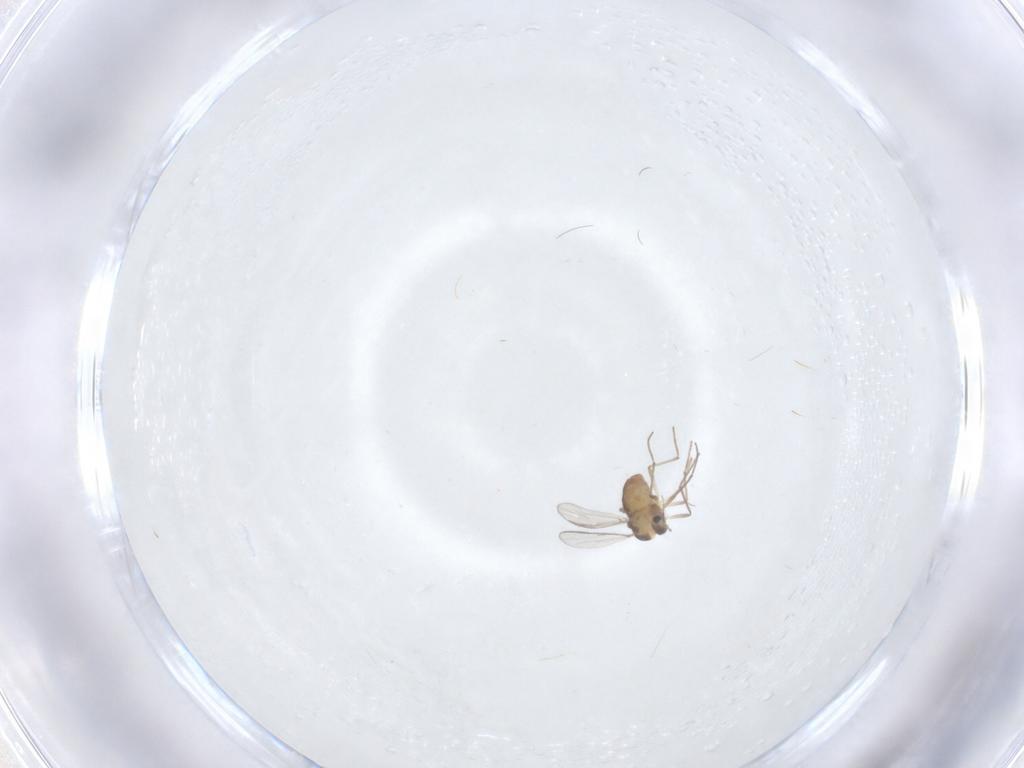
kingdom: Animalia
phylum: Arthropoda
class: Insecta
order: Diptera
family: Chironomidae
